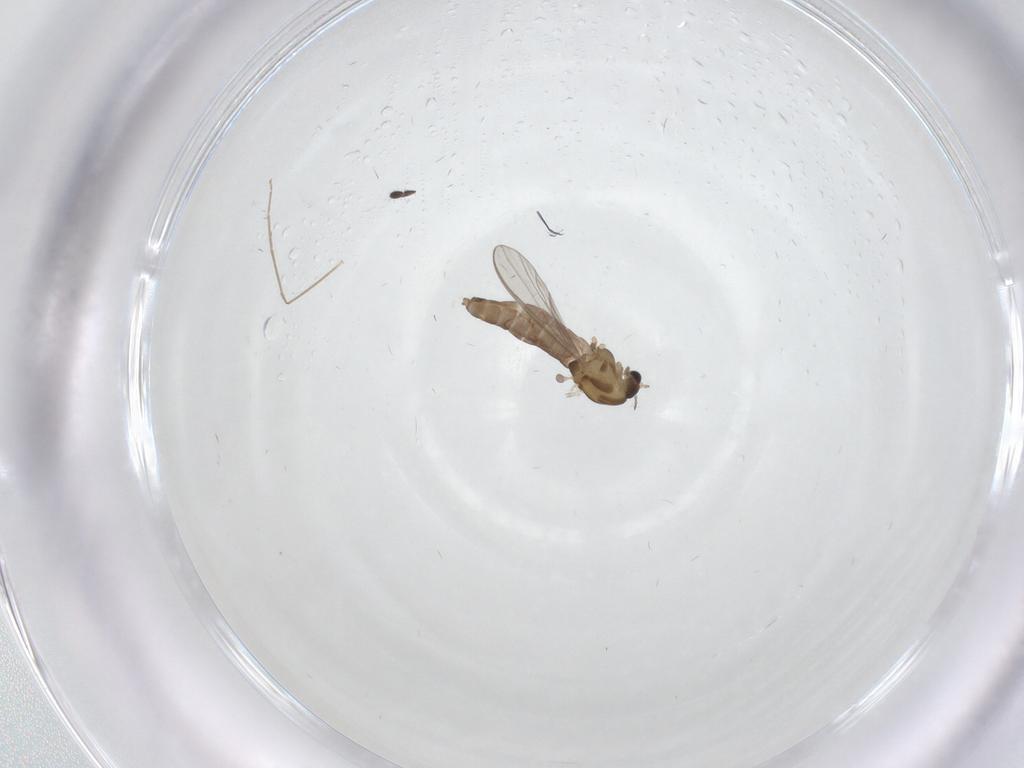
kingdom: Animalia
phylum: Arthropoda
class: Insecta
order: Diptera
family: Chironomidae
